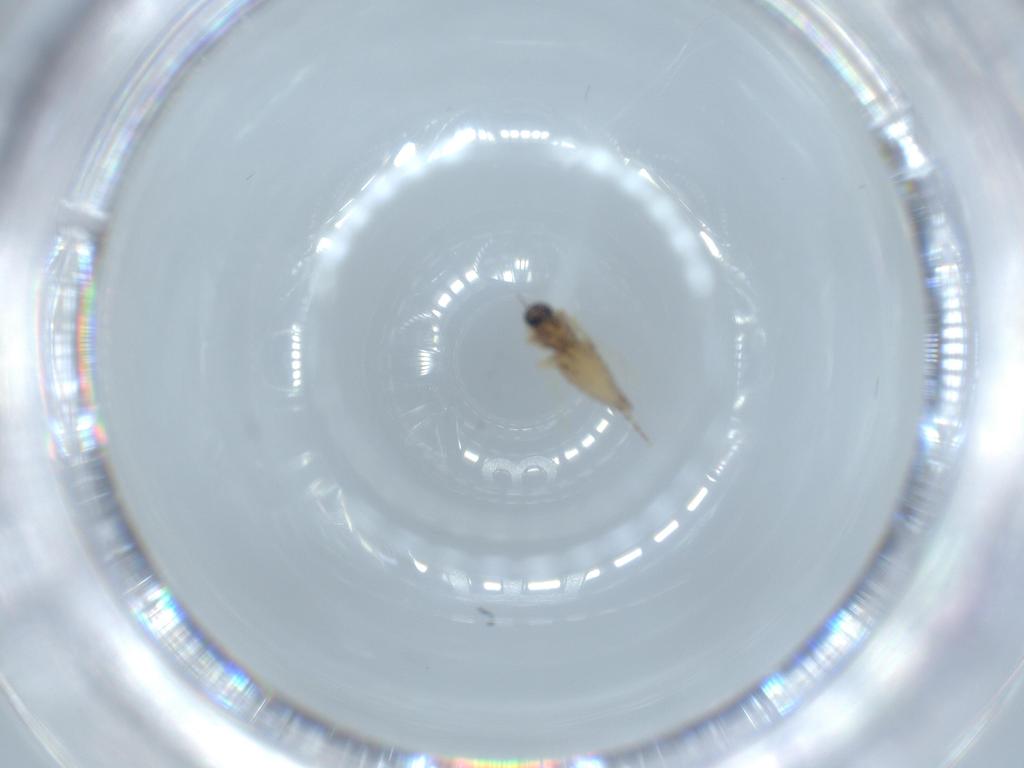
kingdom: Animalia
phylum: Arthropoda
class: Insecta
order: Diptera
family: Ceratopogonidae
